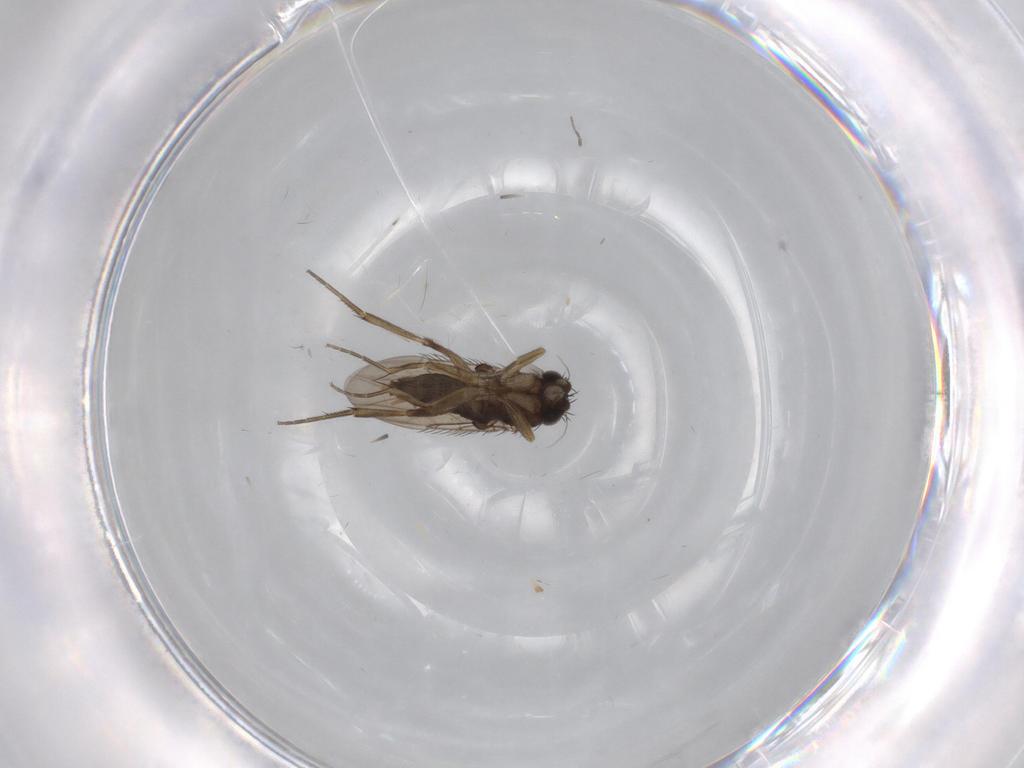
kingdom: Animalia
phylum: Arthropoda
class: Insecta
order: Diptera
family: Phoridae
